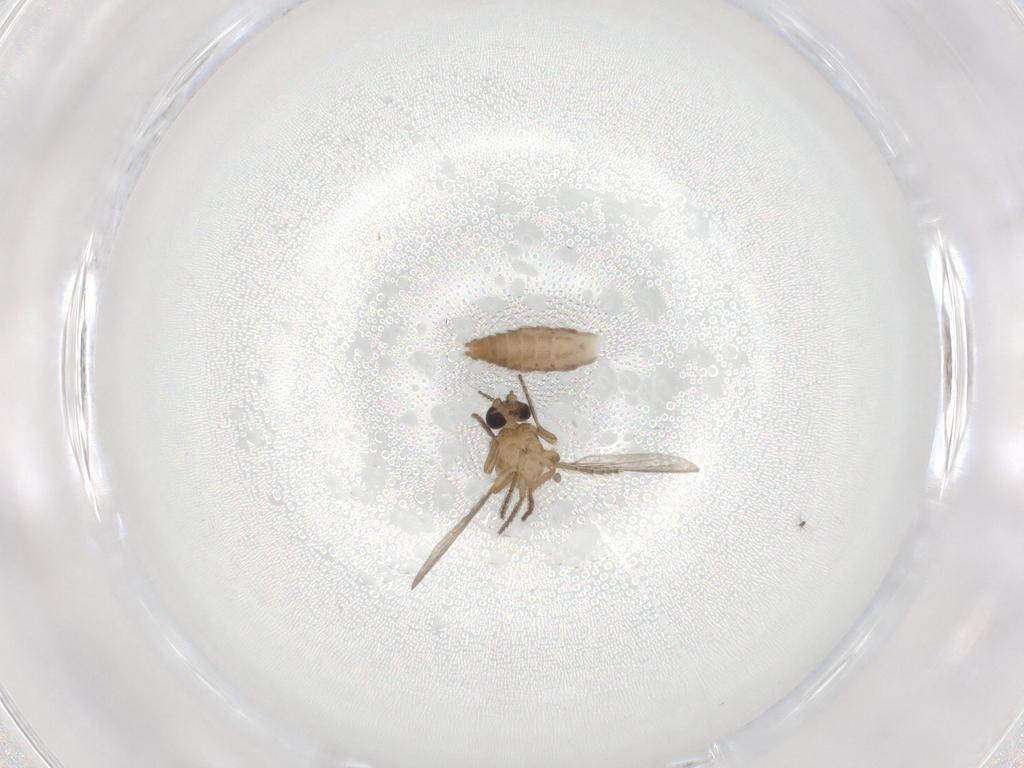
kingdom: Animalia
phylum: Arthropoda
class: Insecta
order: Diptera
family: Ceratopogonidae
